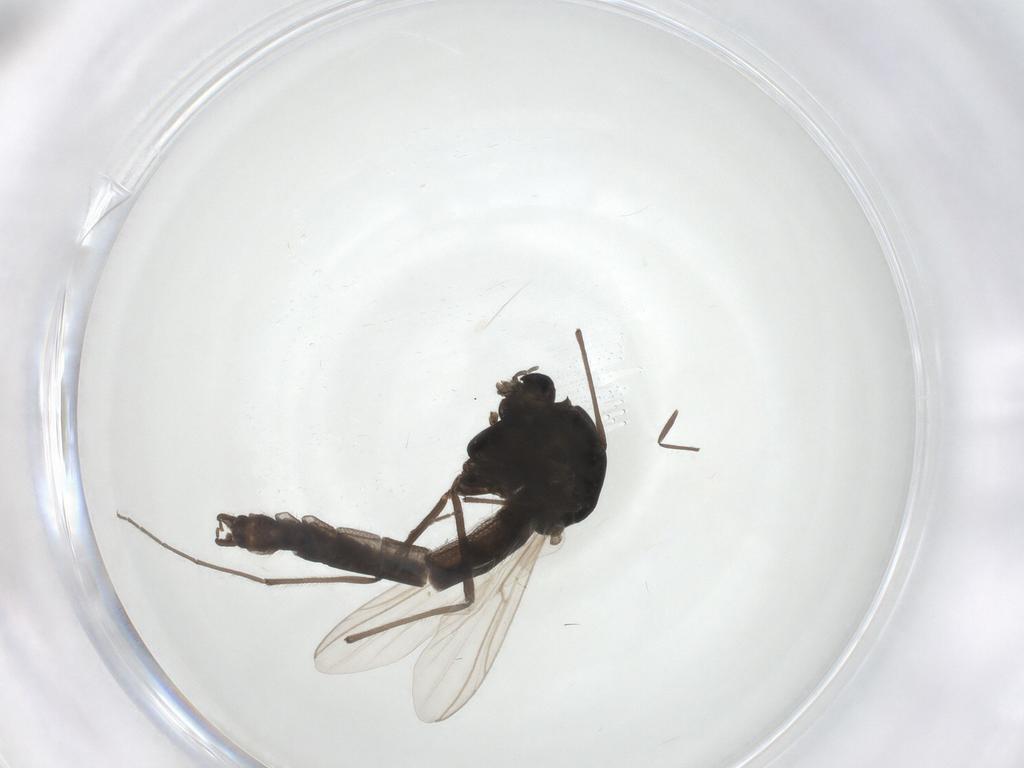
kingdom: Animalia
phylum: Arthropoda
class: Insecta
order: Diptera
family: Chironomidae
